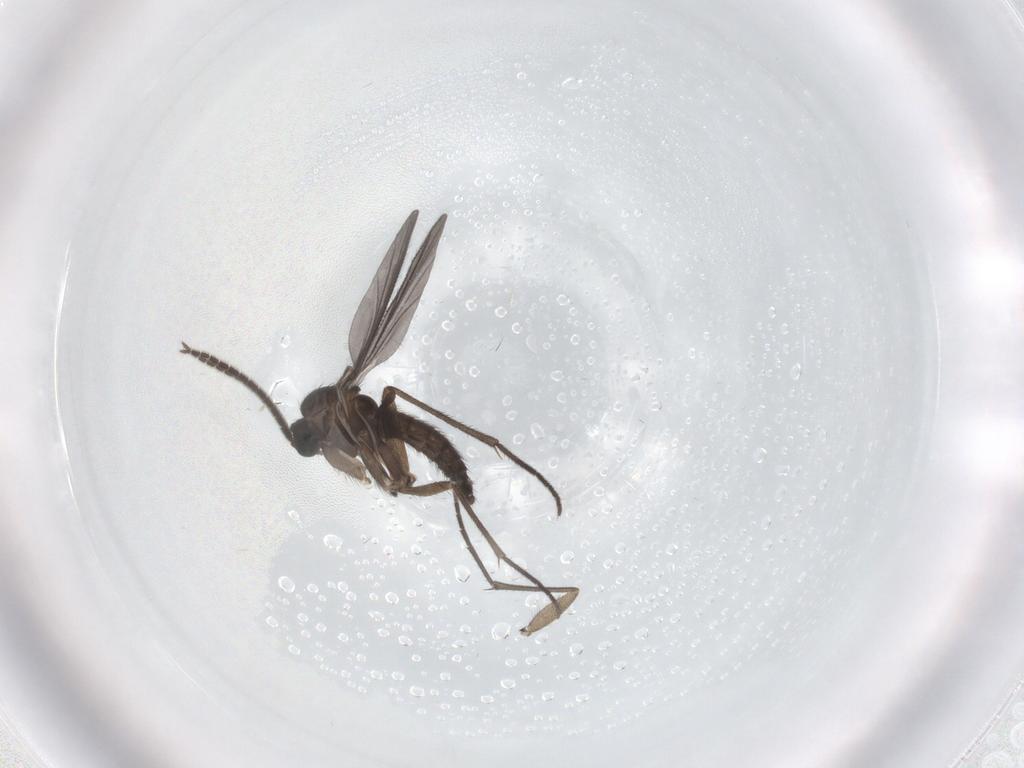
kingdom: Animalia
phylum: Arthropoda
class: Insecta
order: Diptera
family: Sciaridae
